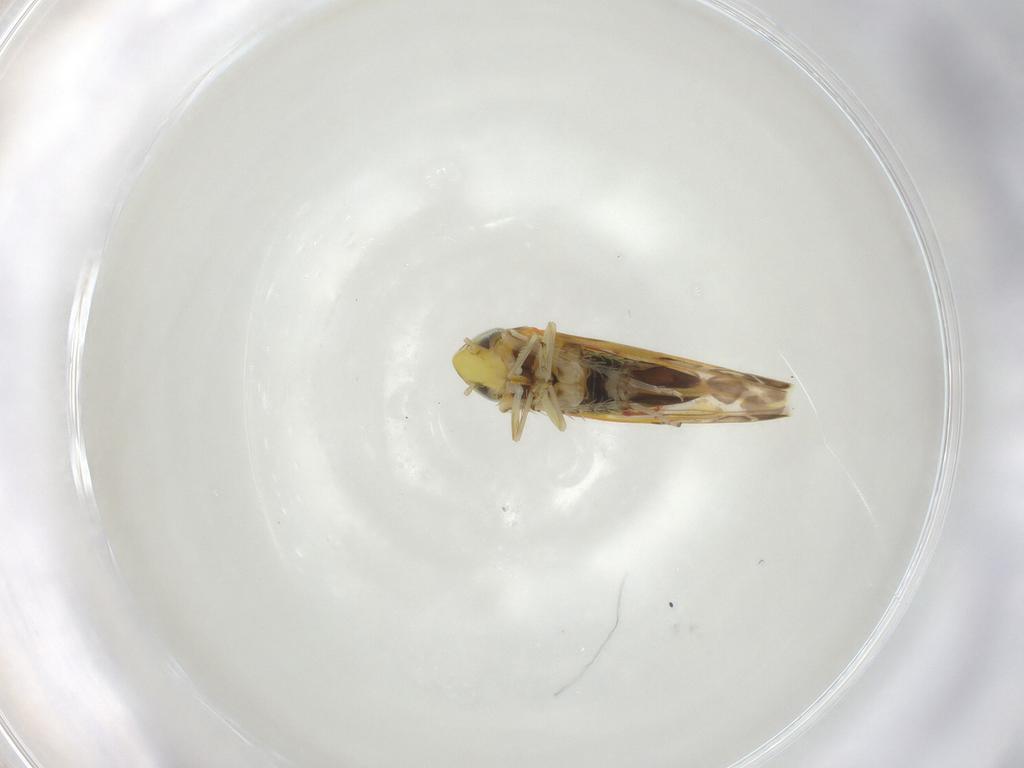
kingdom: Animalia
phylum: Arthropoda
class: Insecta
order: Hemiptera
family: Cicadellidae
